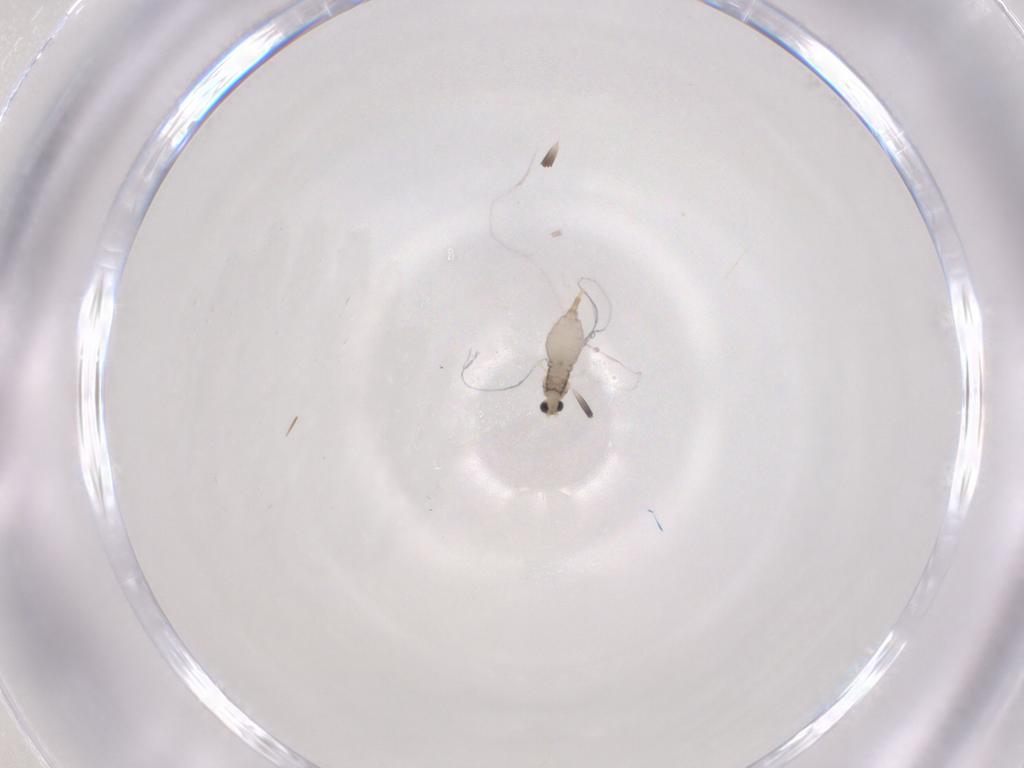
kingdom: Animalia
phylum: Arthropoda
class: Insecta
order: Diptera
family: Cecidomyiidae
